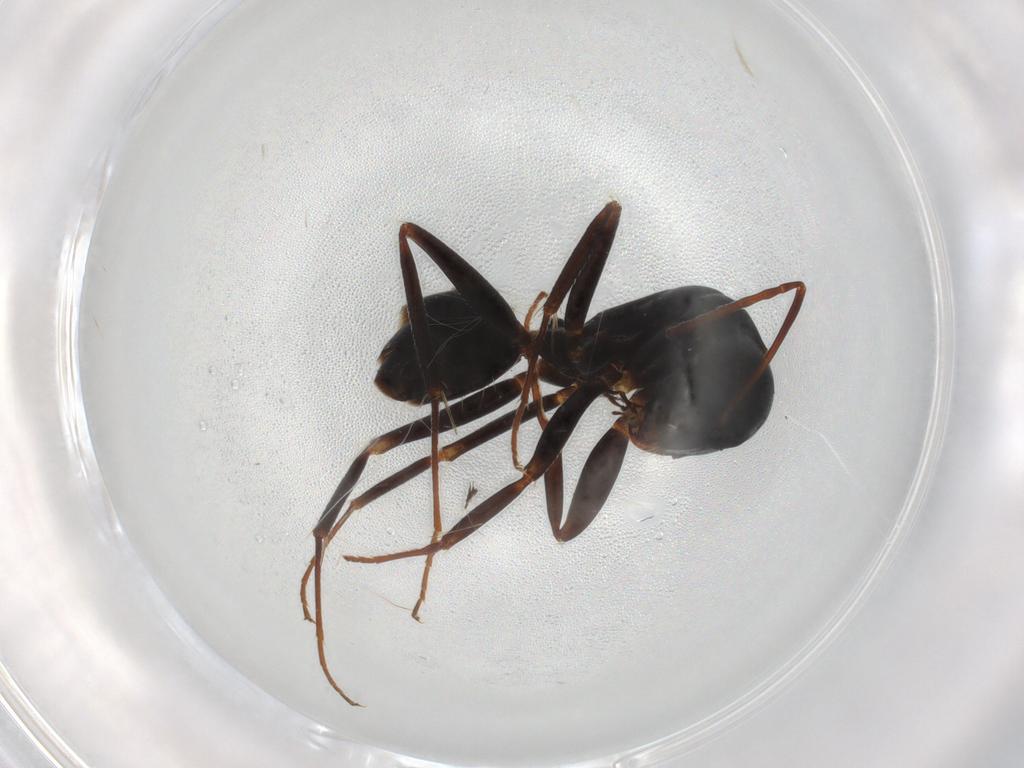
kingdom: Animalia
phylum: Arthropoda
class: Insecta
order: Hymenoptera
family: Formicidae
